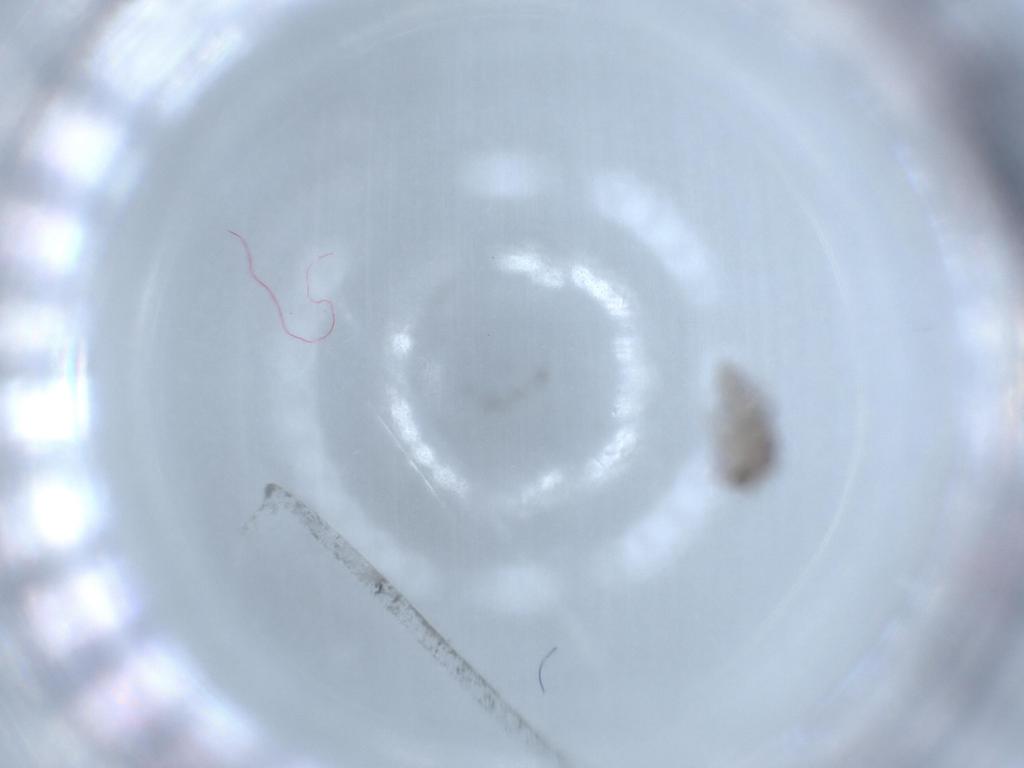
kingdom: Animalia
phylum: Arthropoda
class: Collembola
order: Entomobryomorpha
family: Entomobryidae
